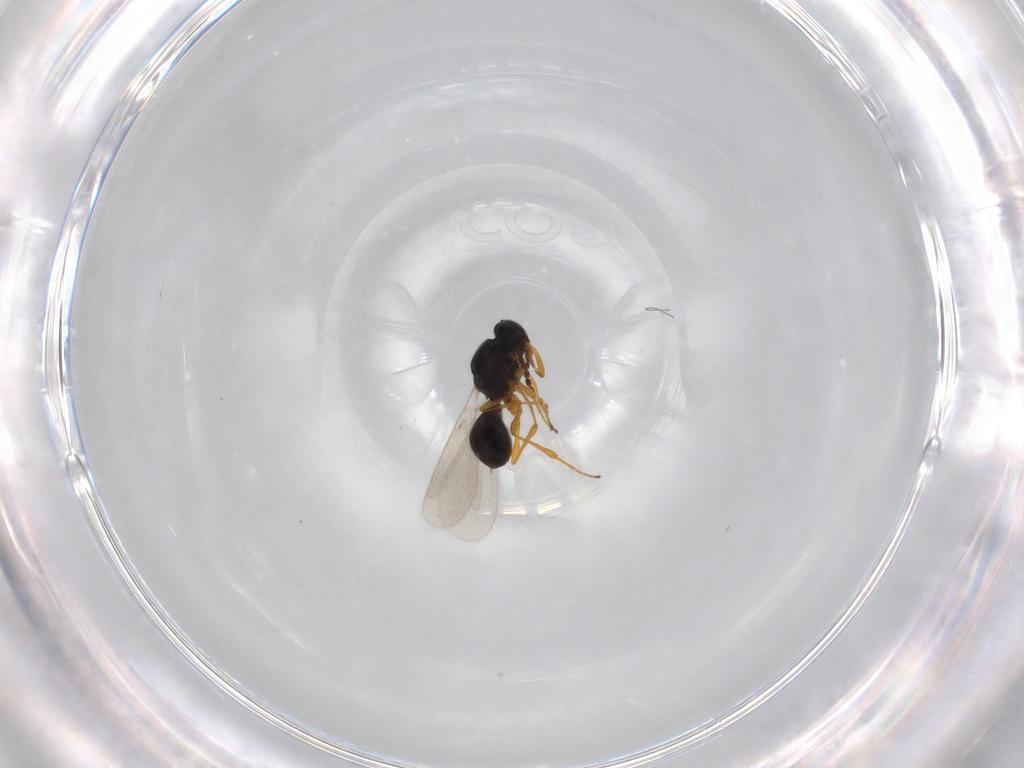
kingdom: Animalia
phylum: Arthropoda
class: Insecta
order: Diptera
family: Mythicomyiidae
